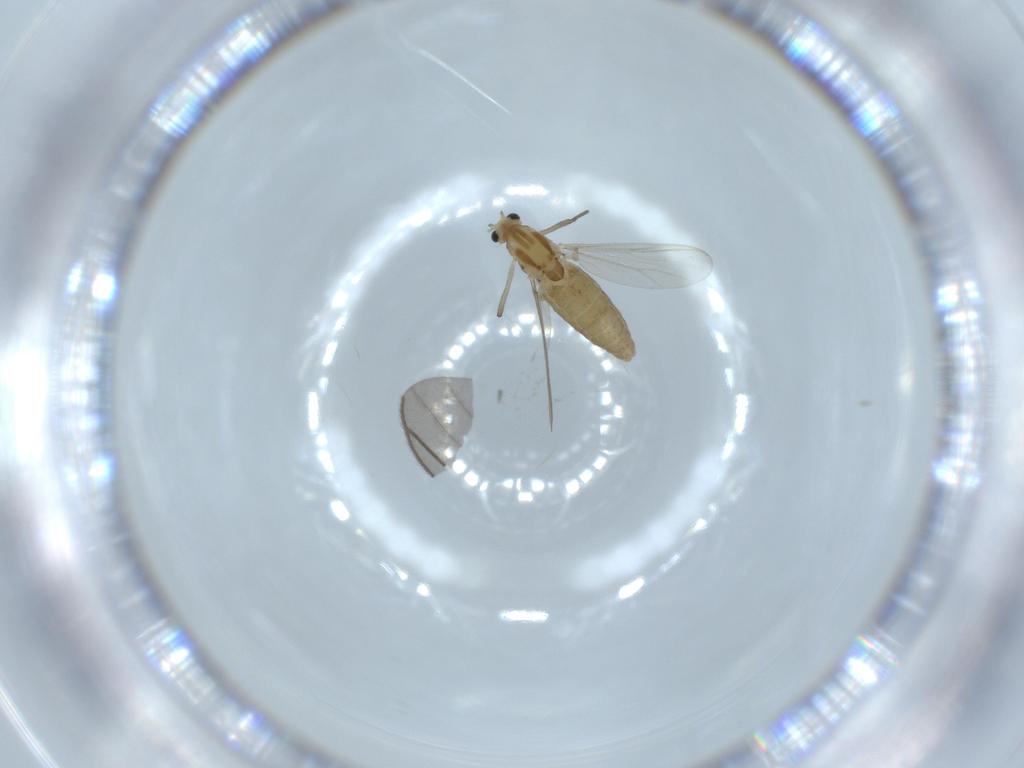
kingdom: Animalia
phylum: Arthropoda
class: Insecta
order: Diptera
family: Chironomidae
